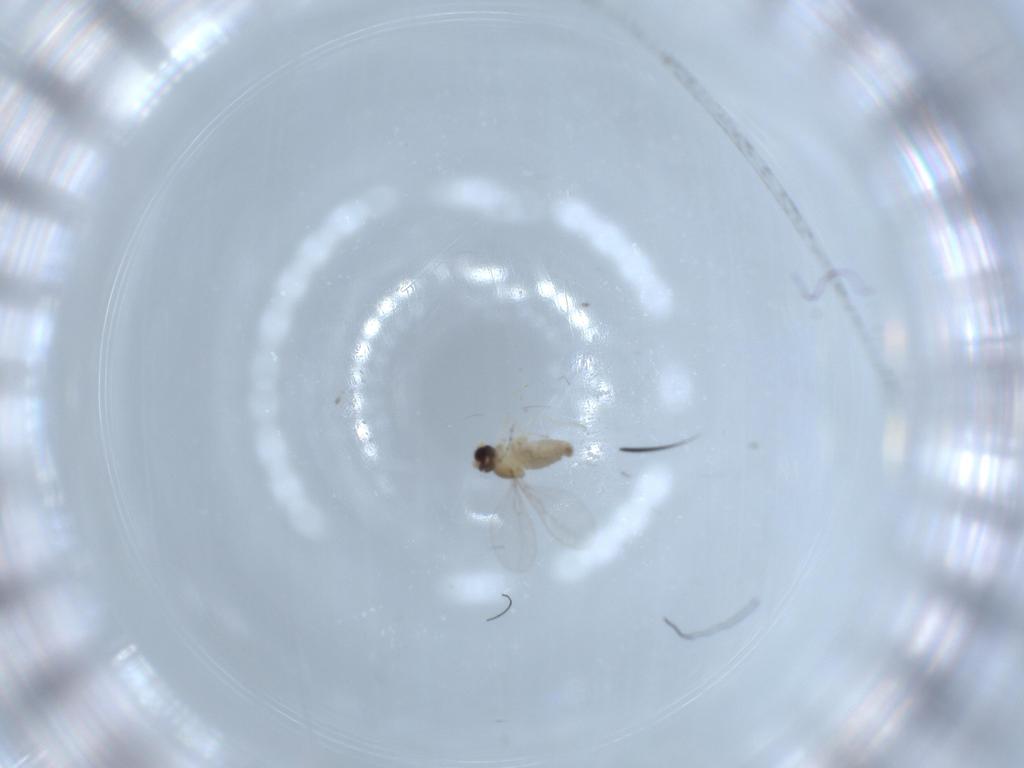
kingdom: Animalia
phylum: Arthropoda
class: Insecta
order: Diptera
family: Cecidomyiidae
